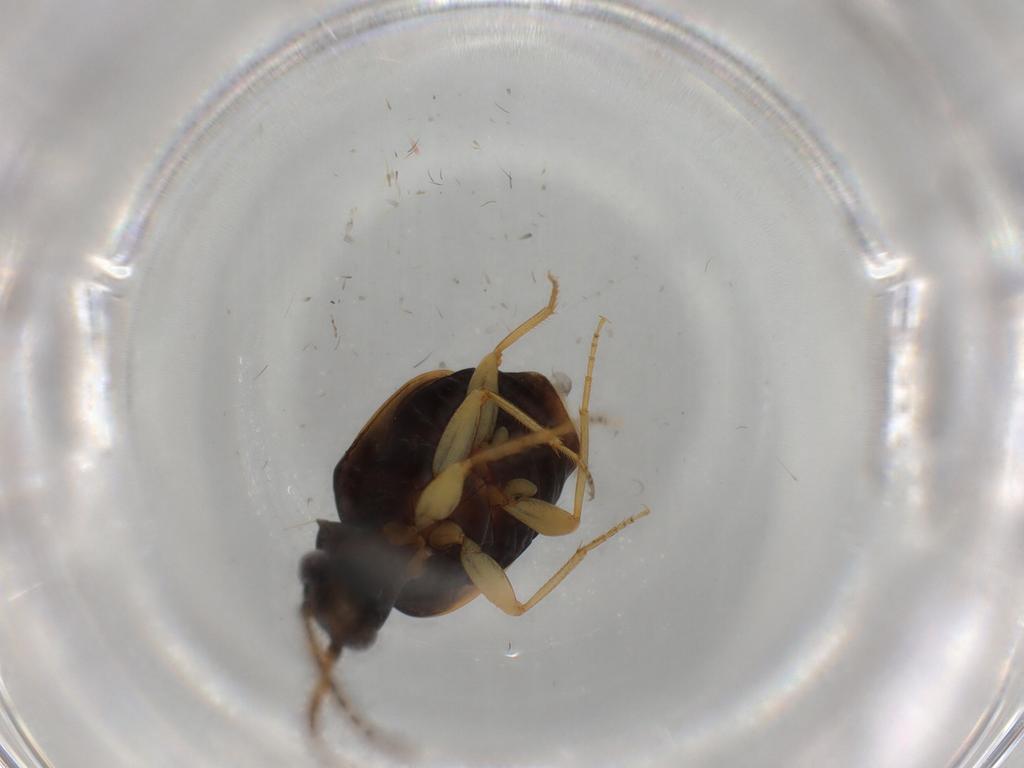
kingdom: Animalia
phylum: Arthropoda
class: Insecta
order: Coleoptera
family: Carabidae
